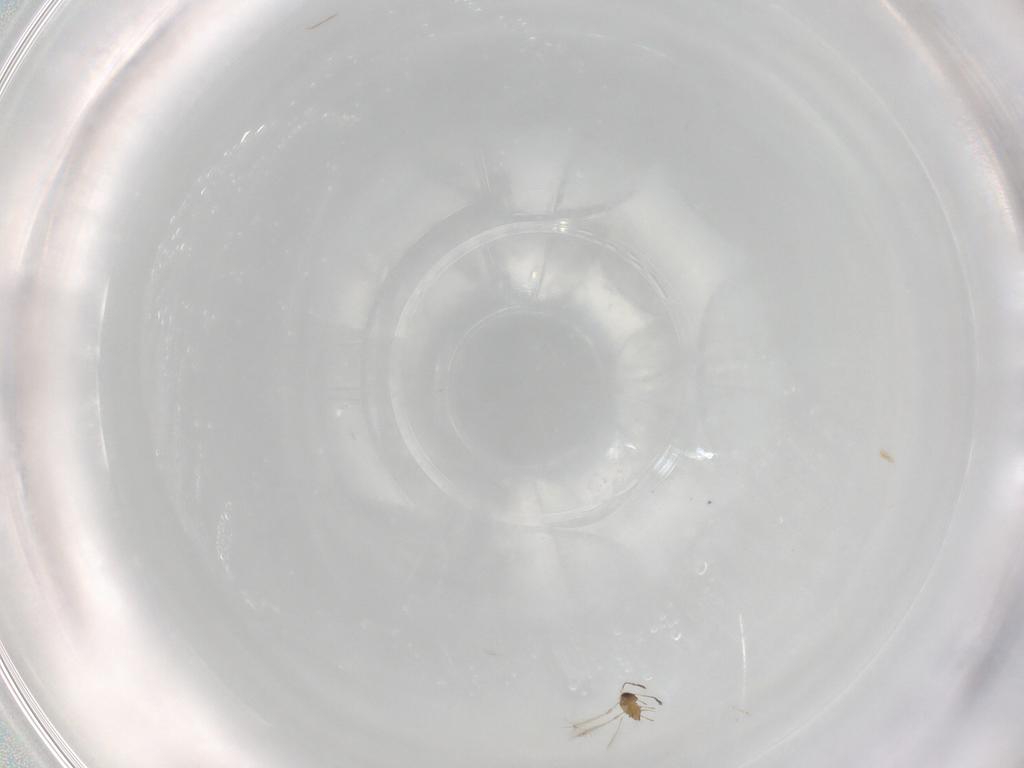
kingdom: Animalia
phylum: Arthropoda
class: Insecta
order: Hymenoptera
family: Mymaridae
